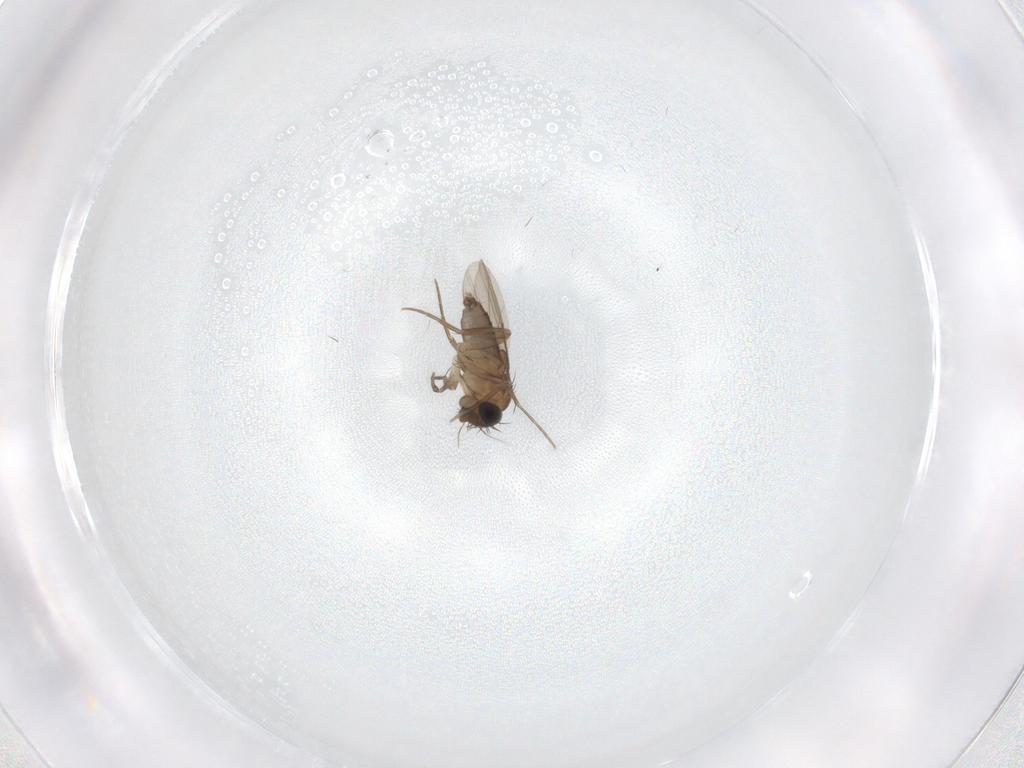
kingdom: Animalia
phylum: Arthropoda
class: Insecta
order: Diptera
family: Phoridae
